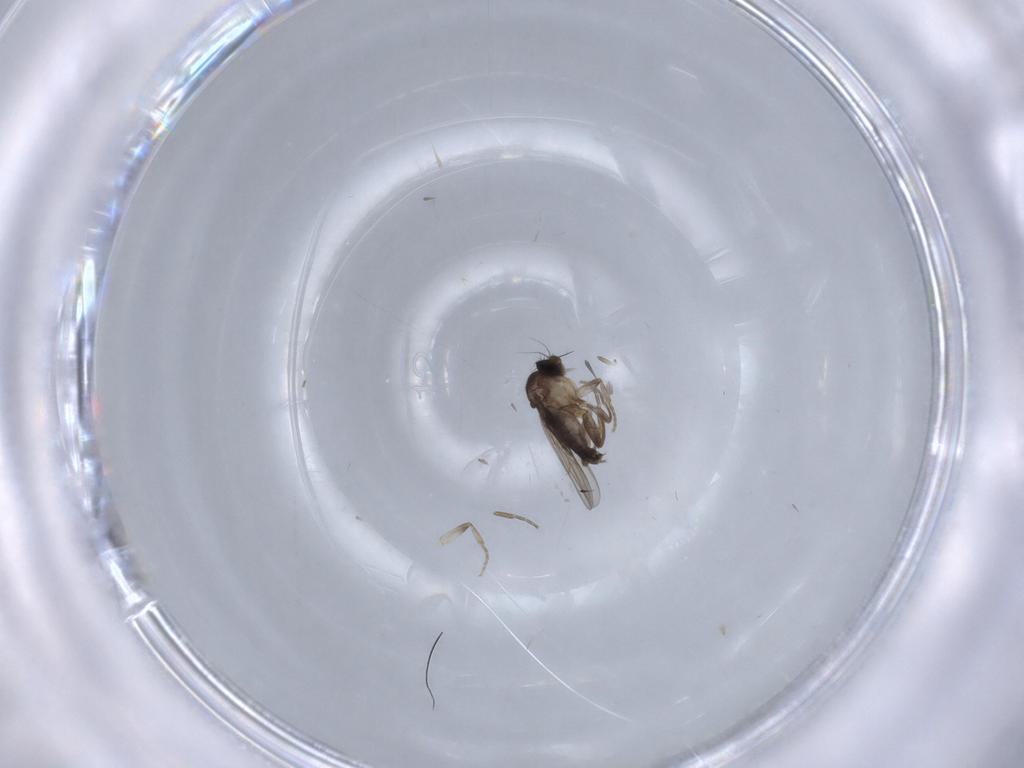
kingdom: Animalia
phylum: Arthropoda
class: Insecta
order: Diptera
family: Phoridae
